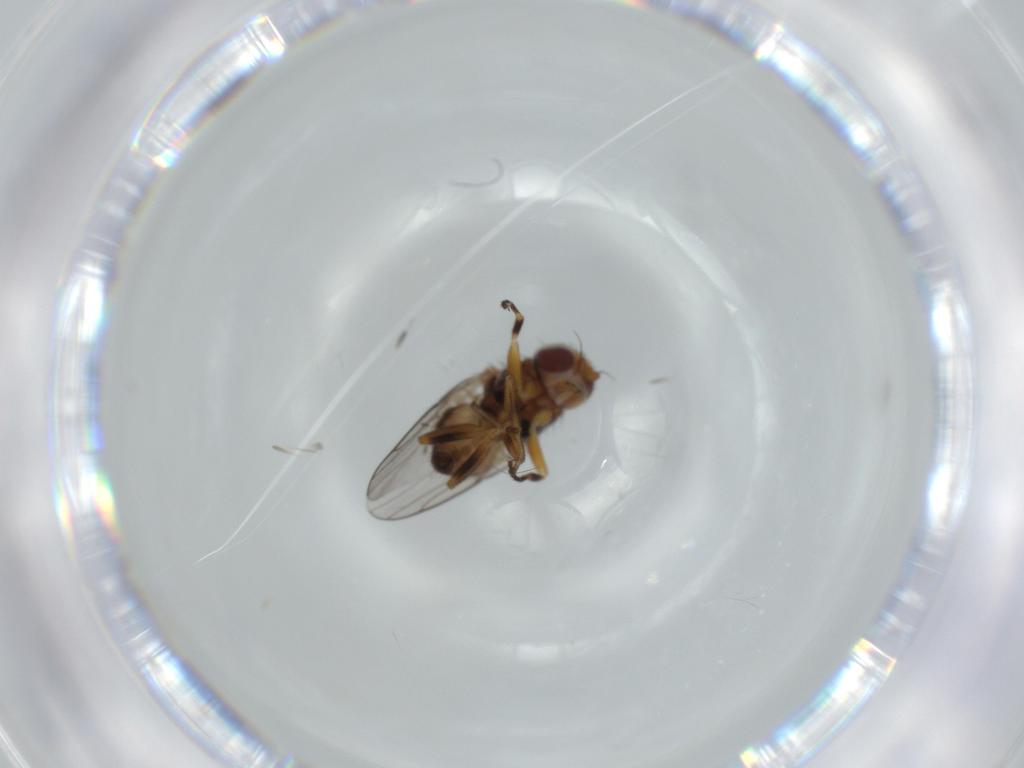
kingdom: Animalia
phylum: Arthropoda
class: Insecta
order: Diptera
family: Chloropidae
